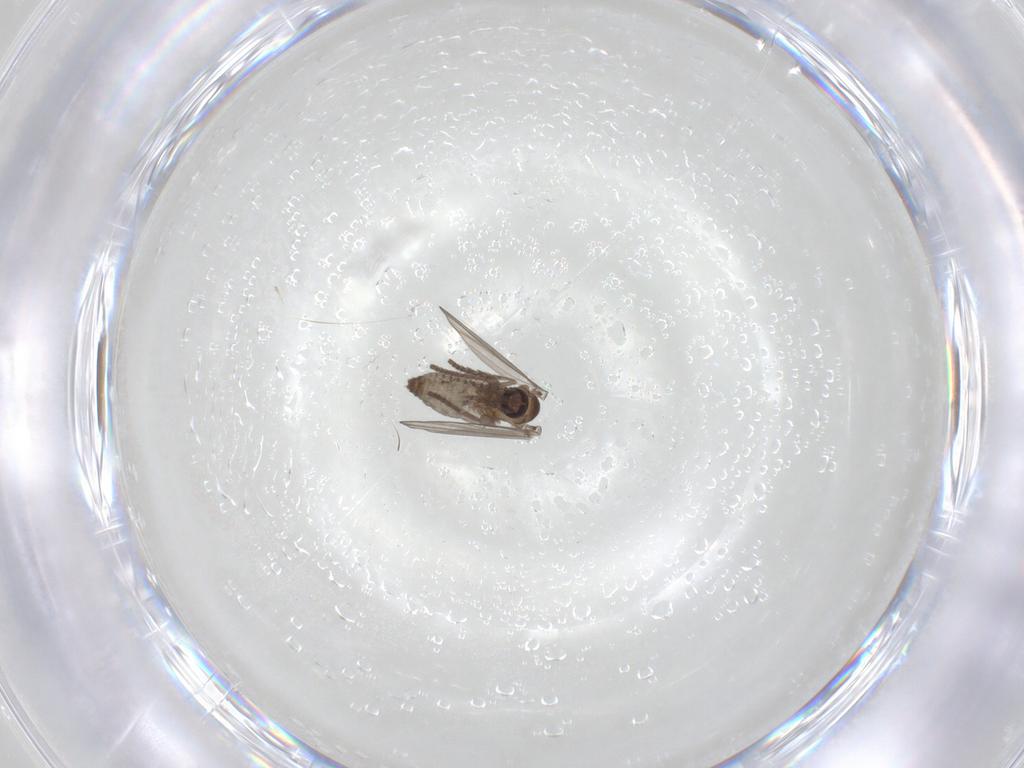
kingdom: Animalia
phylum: Arthropoda
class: Insecta
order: Diptera
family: Psychodidae
